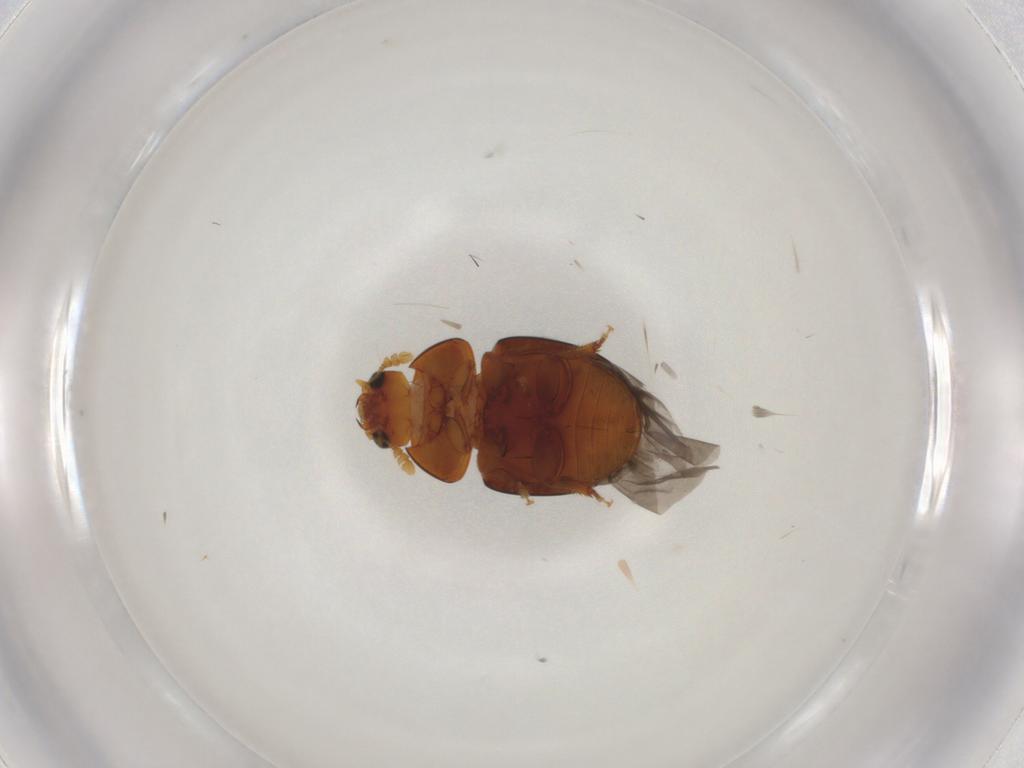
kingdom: Animalia
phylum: Arthropoda
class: Insecta
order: Coleoptera
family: Phalacridae
